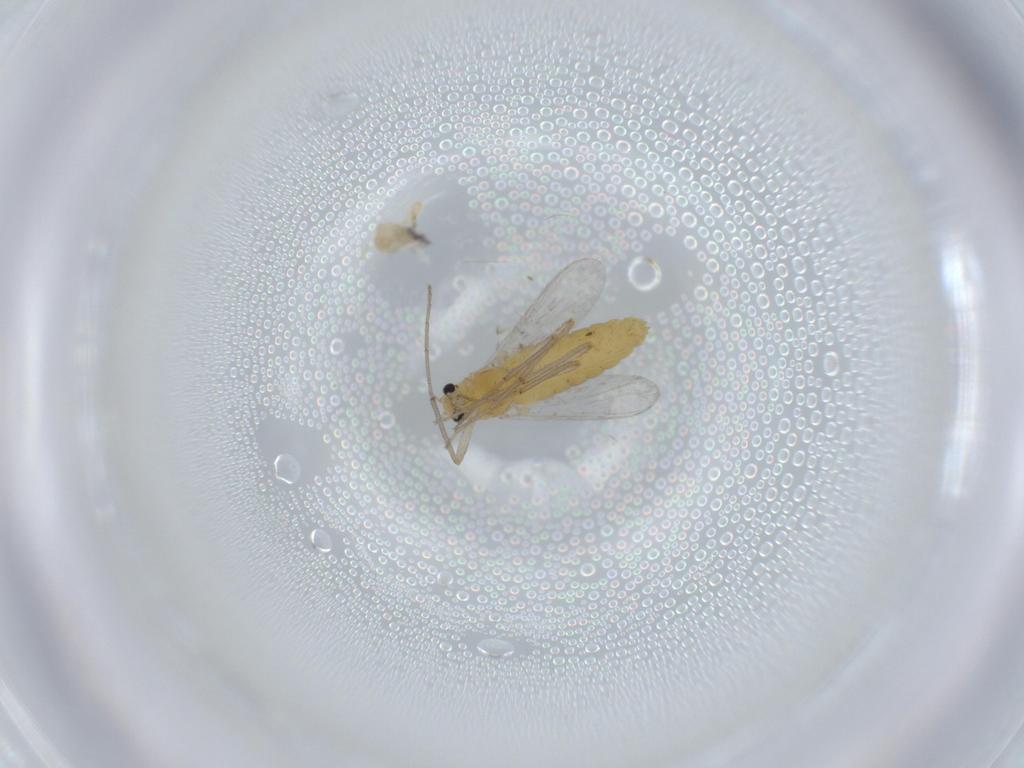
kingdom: Animalia
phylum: Arthropoda
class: Insecta
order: Diptera
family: Chironomidae
